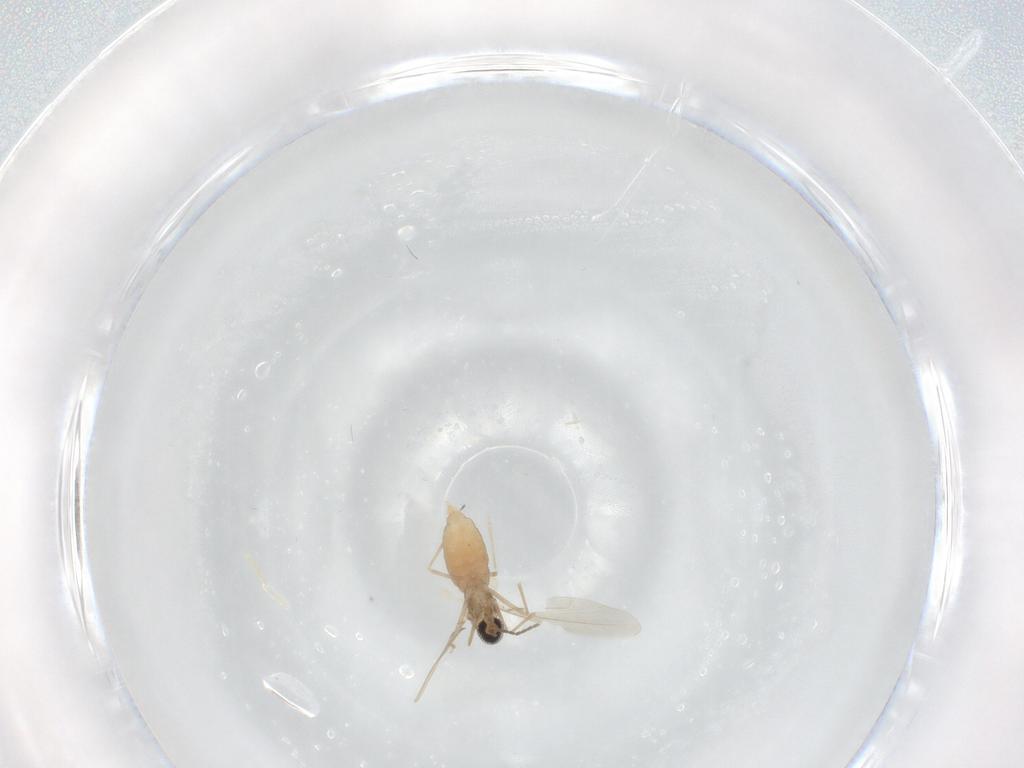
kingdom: Animalia
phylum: Arthropoda
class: Insecta
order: Diptera
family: Cecidomyiidae
